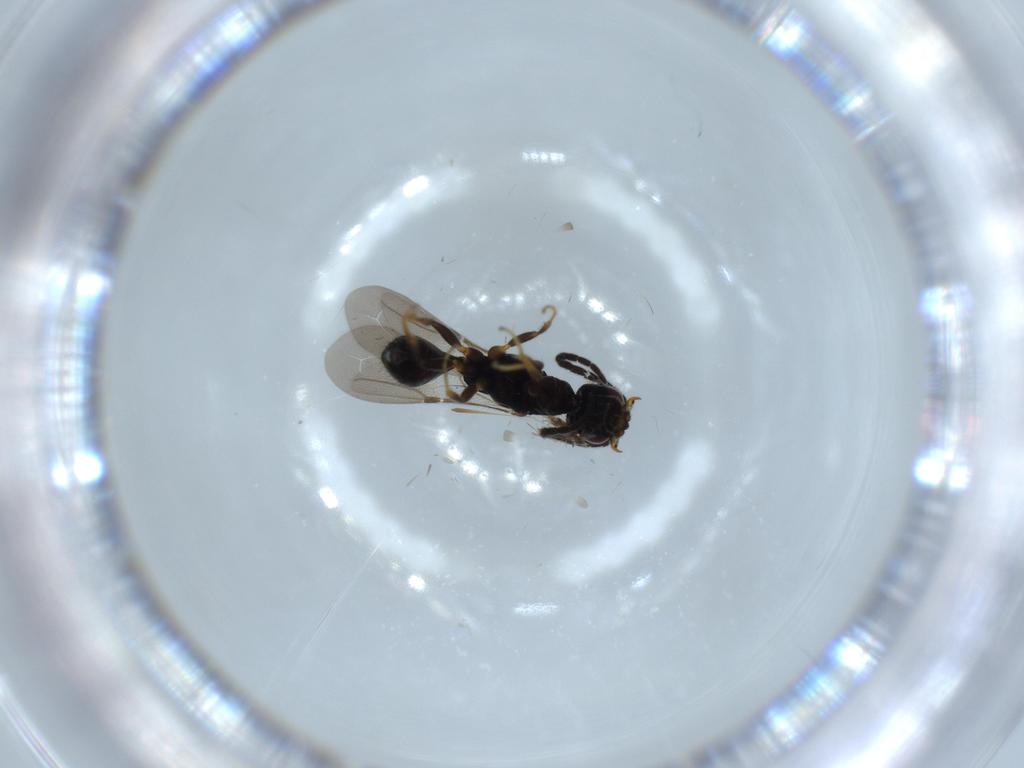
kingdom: Animalia
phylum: Arthropoda
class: Insecta
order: Hymenoptera
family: Bethylidae
